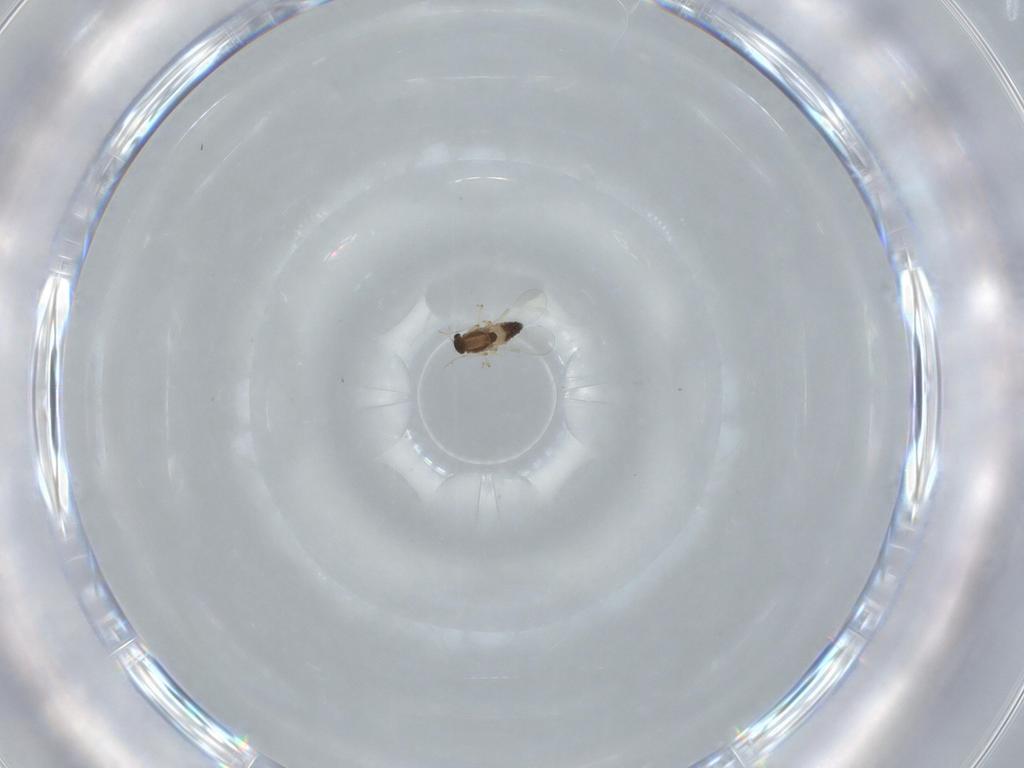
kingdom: Animalia
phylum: Arthropoda
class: Insecta
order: Diptera
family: Chironomidae
